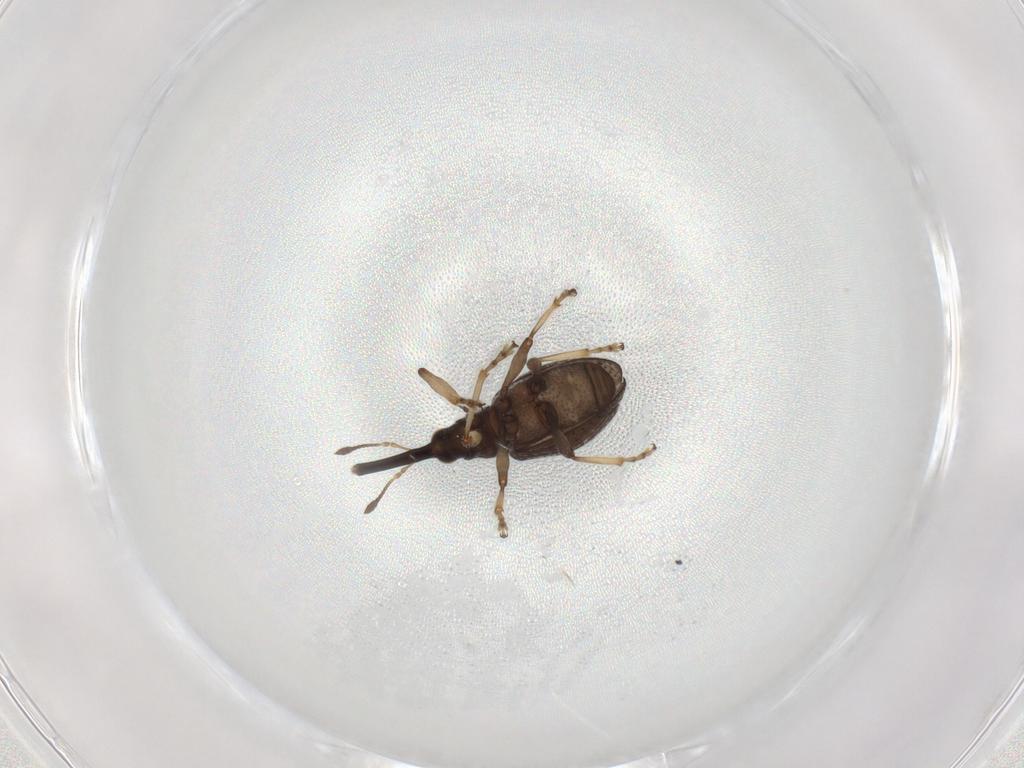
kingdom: Animalia
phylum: Arthropoda
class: Insecta
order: Coleoptera
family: Brentidae
